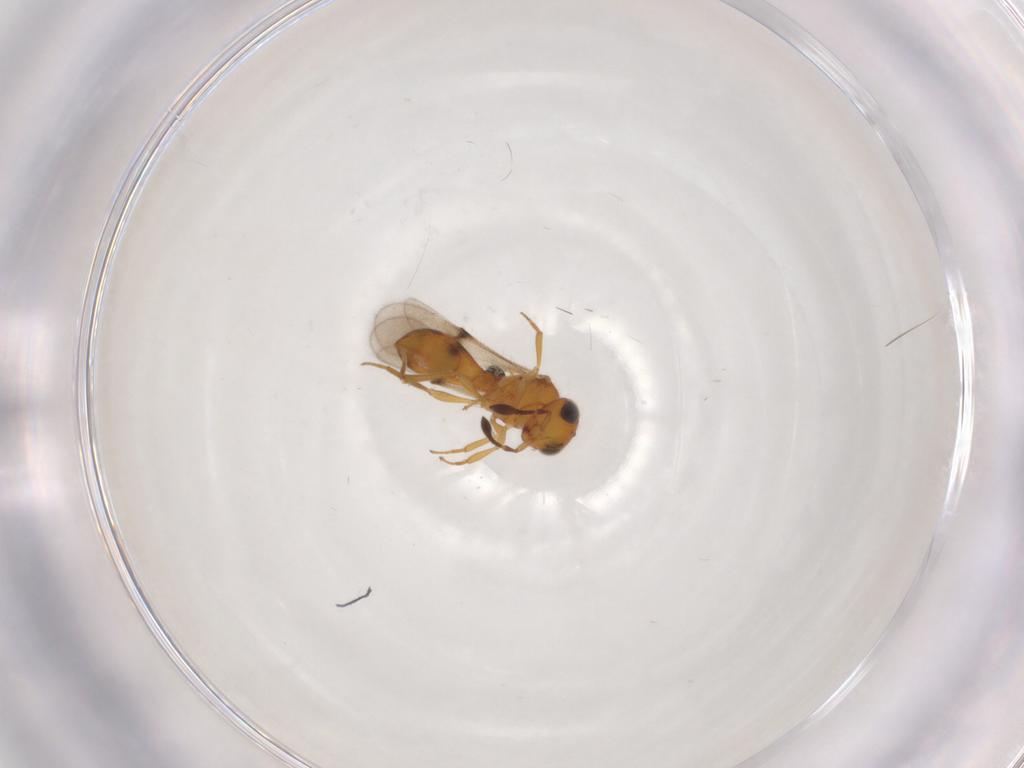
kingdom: Animalia
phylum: Arthropoda
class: Insecta
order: Hymenoptera
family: Scelionidae
